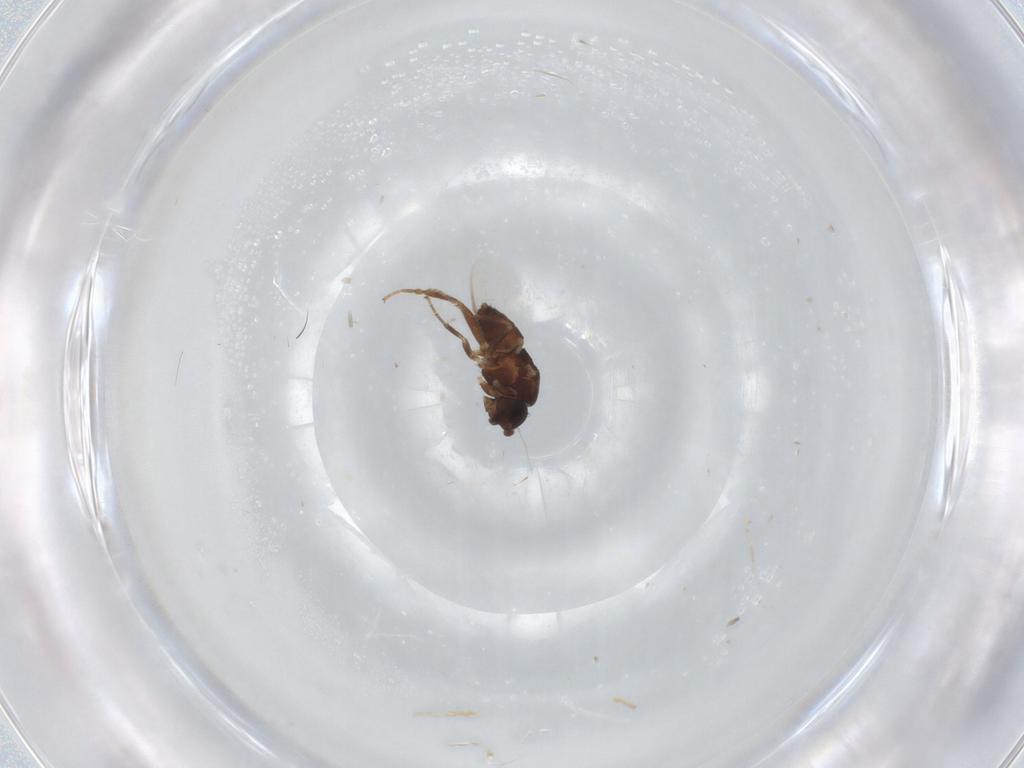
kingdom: Animalia
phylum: Arthropoda
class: Insecta
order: Diptera
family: Sphaeroceridae
